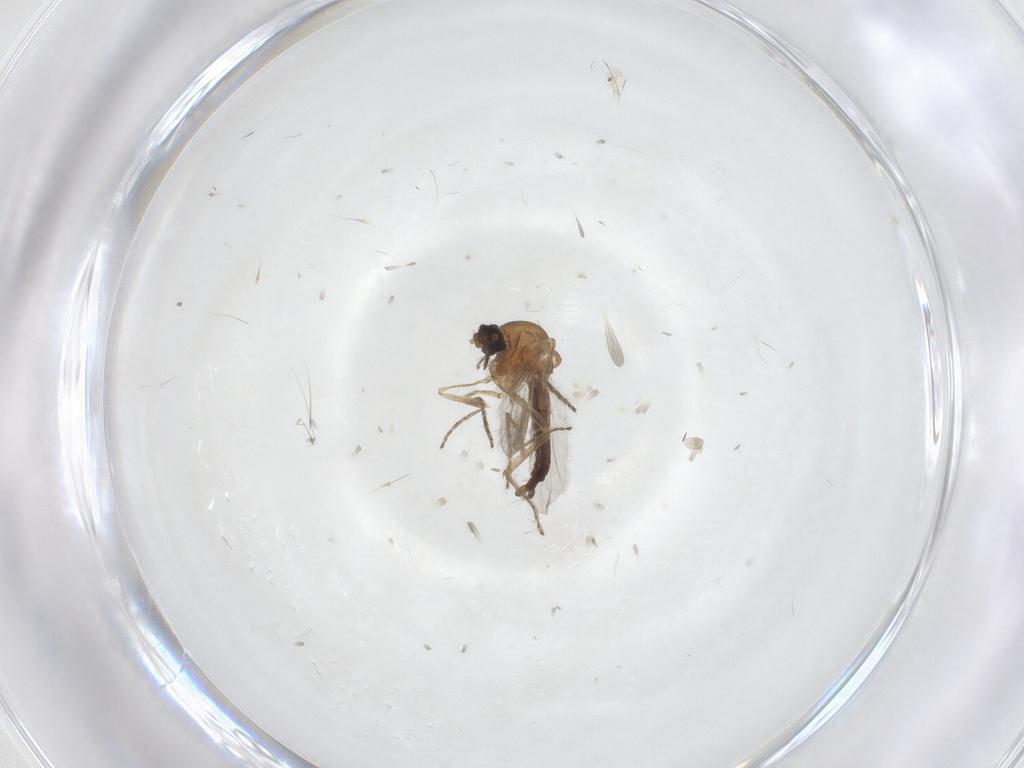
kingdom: Animalia
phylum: Arthropoda
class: Insecta
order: Diptera
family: Ceratopogonidae
